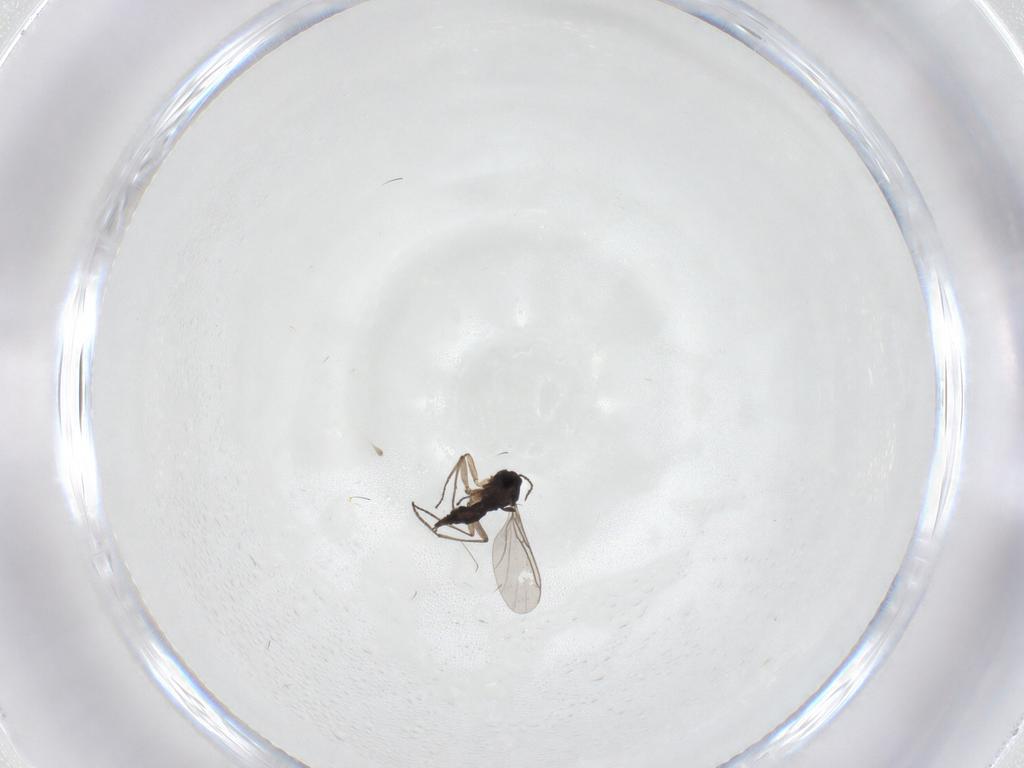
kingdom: Animalia
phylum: Arthropoda
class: Insecta
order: Diptera
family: Sciaridae
